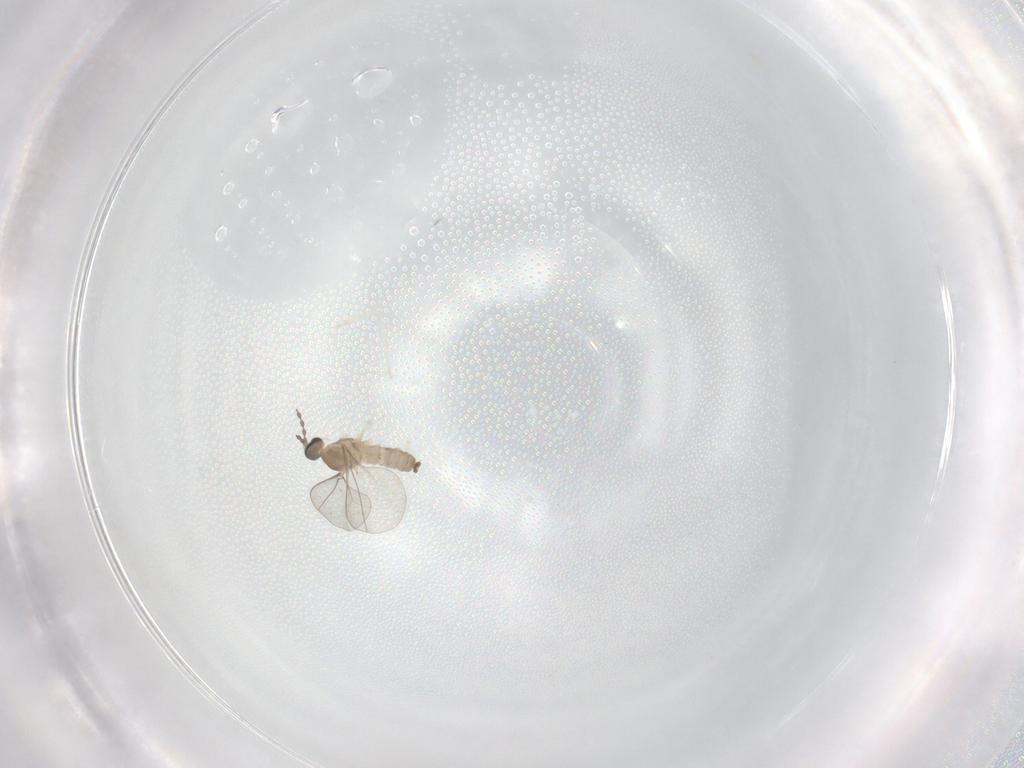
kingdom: Animalia
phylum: Arthropoda
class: Insecta
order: Diptera
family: Cecidomyiidae
